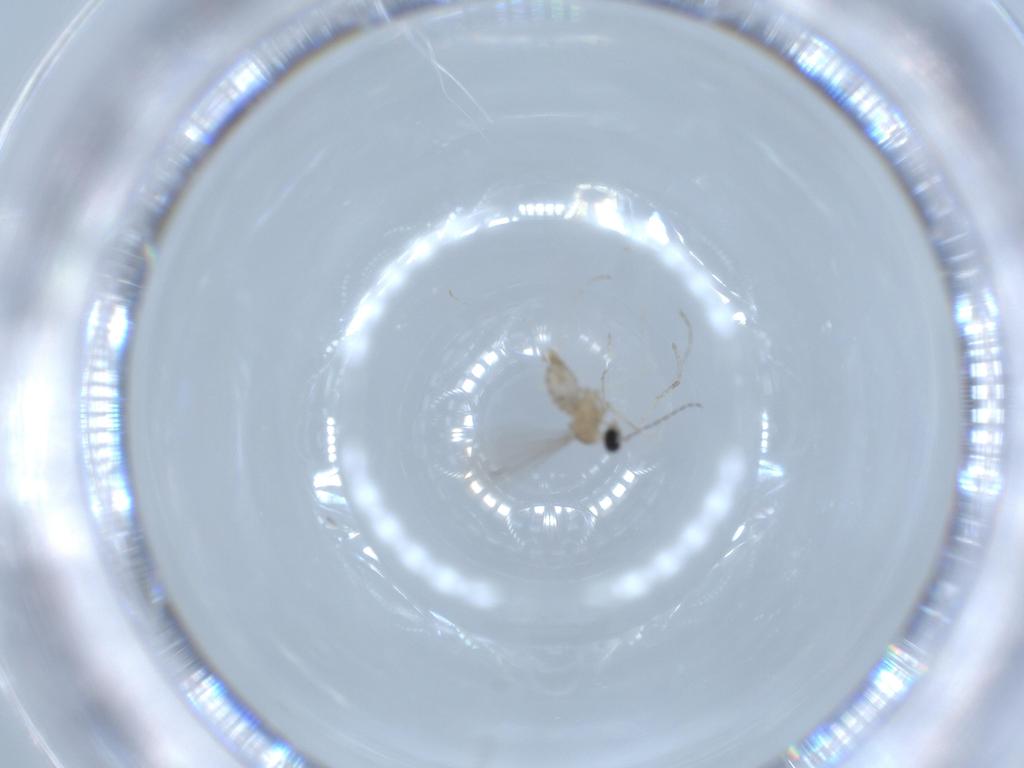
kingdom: Animalia
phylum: Arthropoda
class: Insecta
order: Diptera
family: Cecidomyiidae
